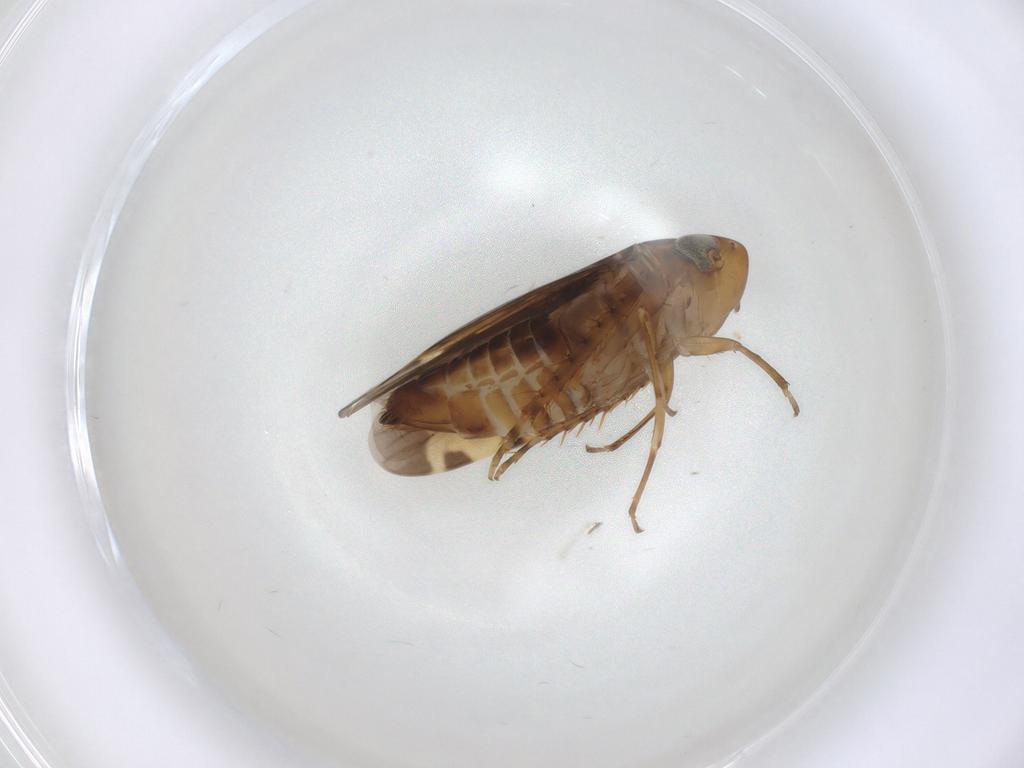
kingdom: Animalia
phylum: Arthropoda
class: Insecta
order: Hemiptera
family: Cicadellidae
